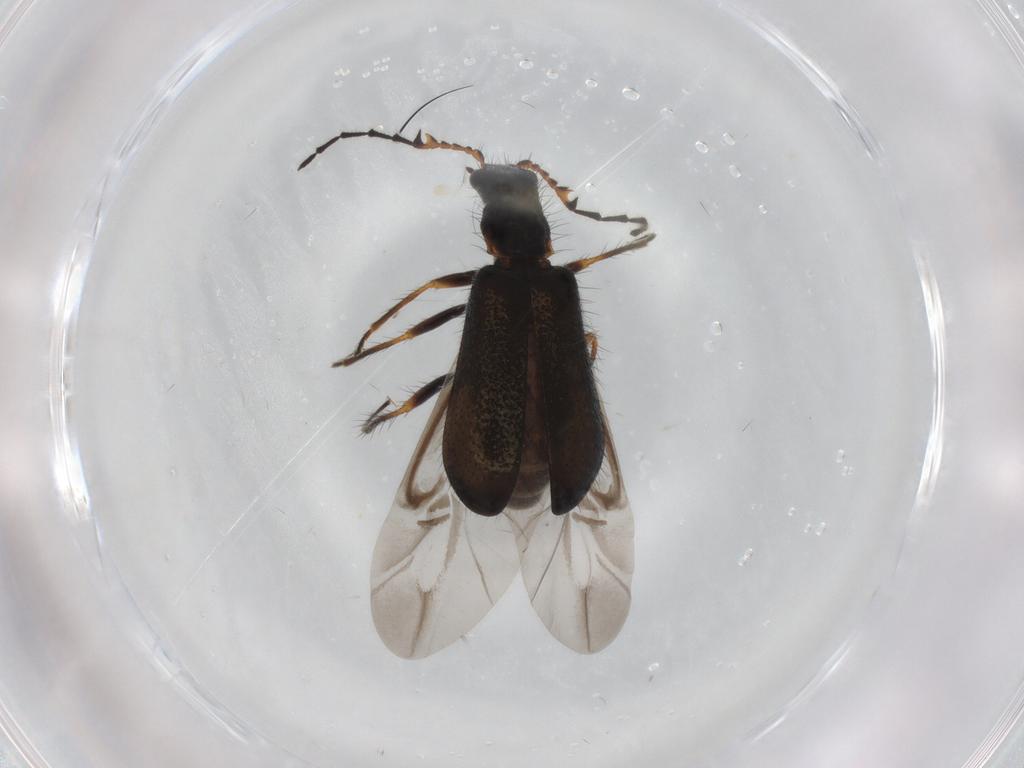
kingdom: Animalia
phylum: Arthropoda
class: Insecta
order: Coleoptera
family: Melyridae
